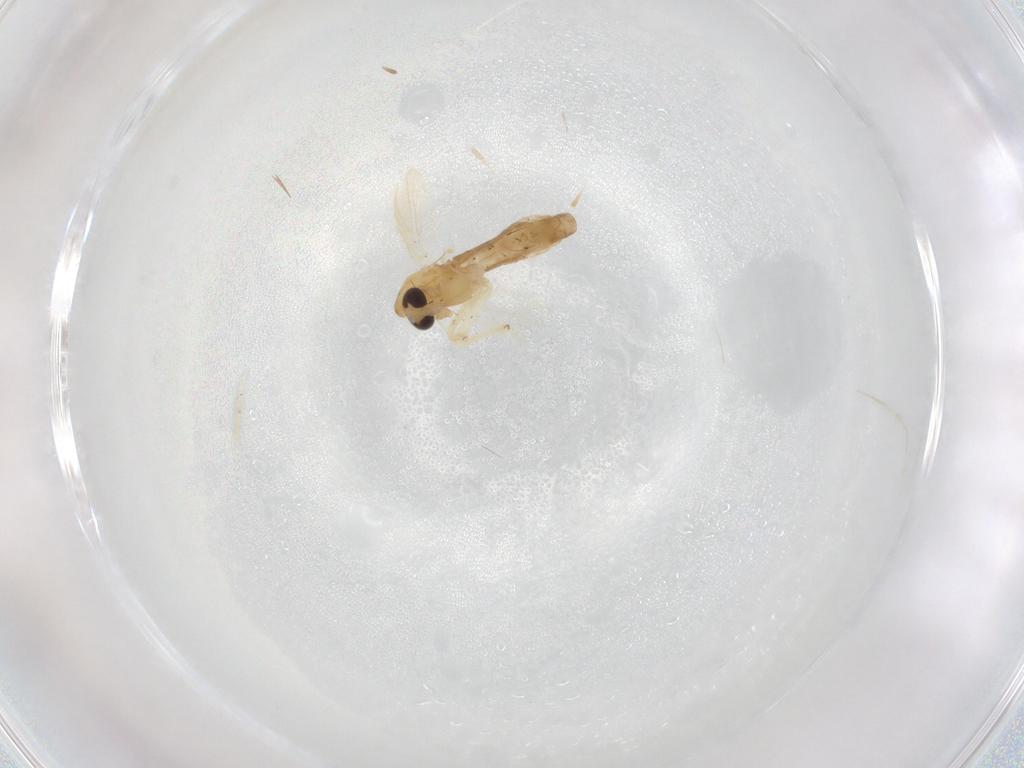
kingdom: Animalia
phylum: Arthropoda
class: Insecta
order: Diptera
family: Cecidomyiidae
